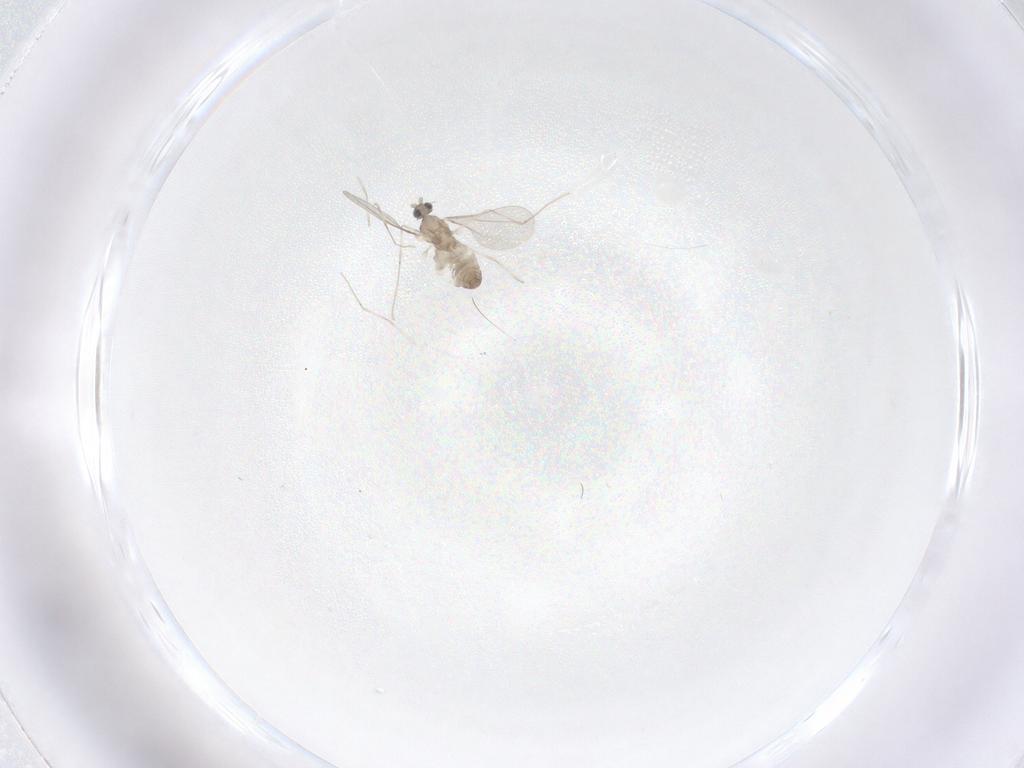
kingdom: Animalia
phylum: Arthropoda
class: Insecta
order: Diptera
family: Cecidomyiidae
